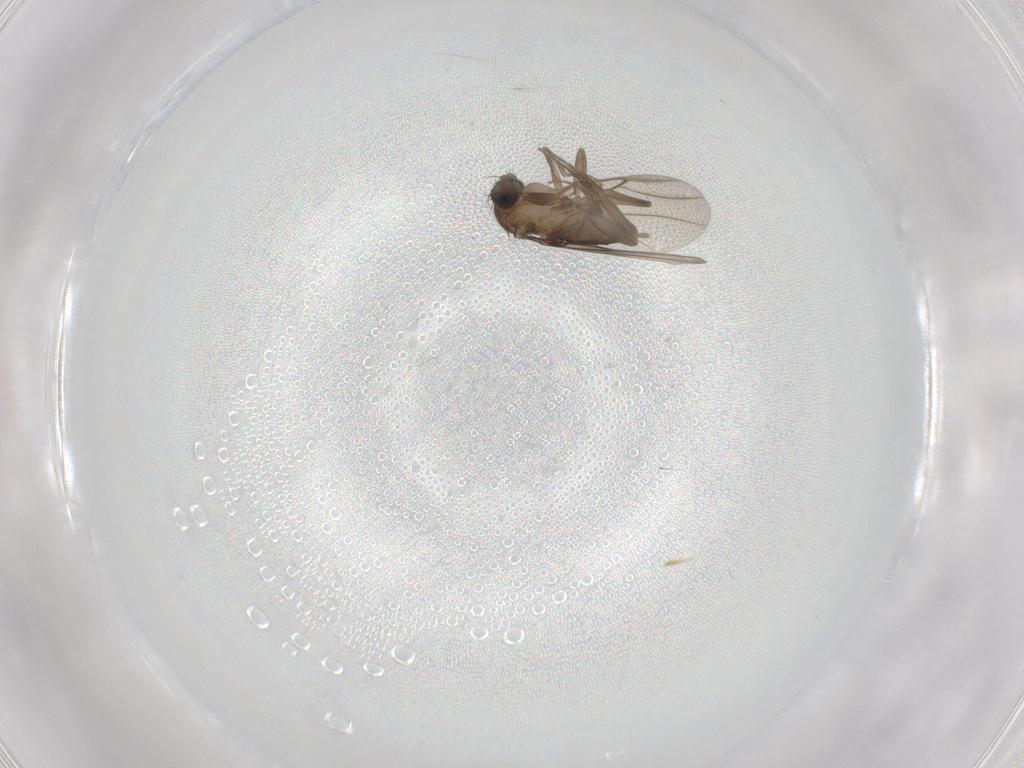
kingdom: Animalia
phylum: Arthropoda
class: Insecta
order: Diptera
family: Phoridae
